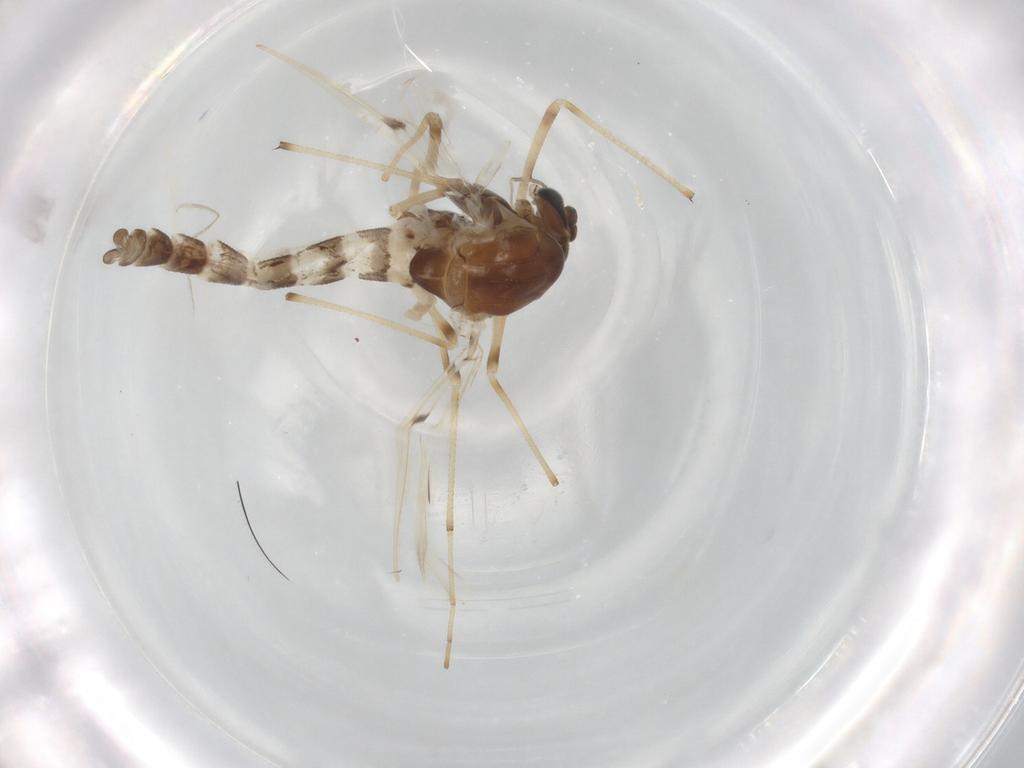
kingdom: Animalia
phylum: Arthropoda
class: Insecta
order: Diptera
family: Chironomidae
